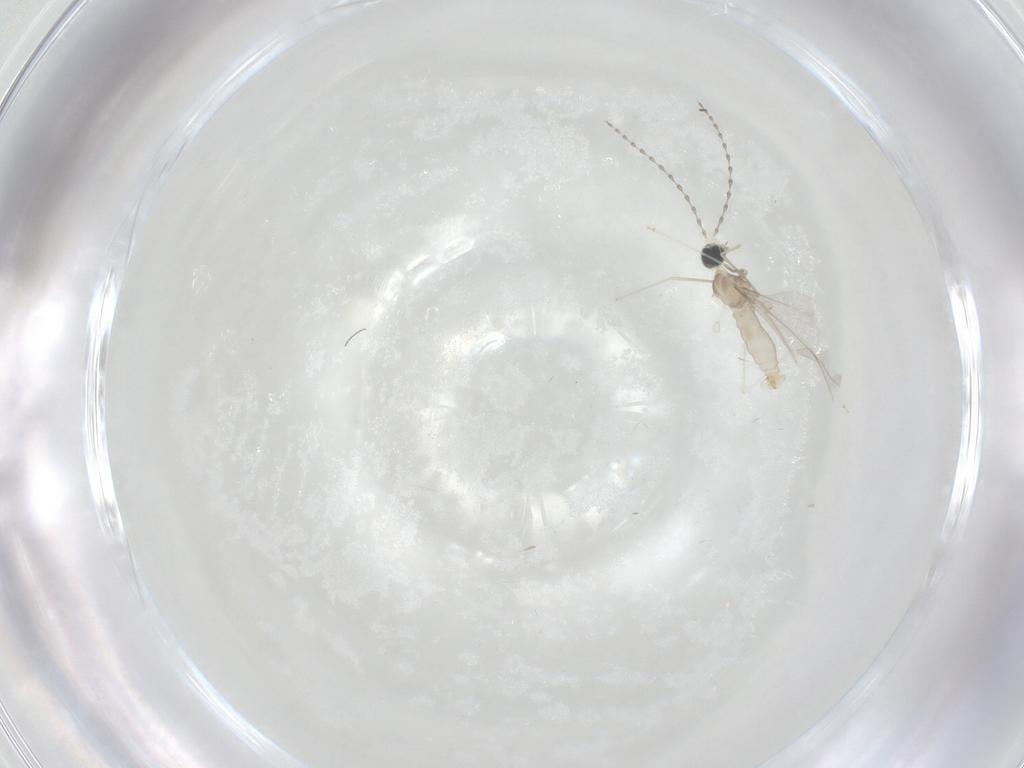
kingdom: Animalia
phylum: Arthropoda
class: Insecta
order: Diptera
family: Cecidomyiidae
